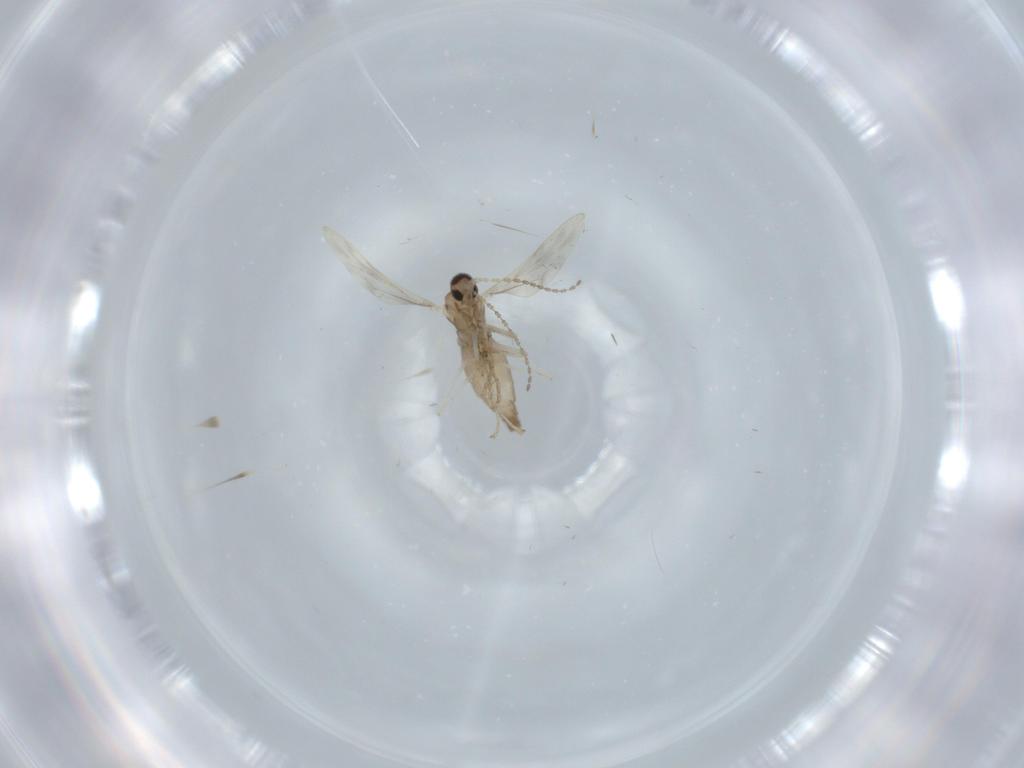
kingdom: Animalia
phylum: Arthropoda
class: Insecta
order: Diptera
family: Cecidomyiidae
